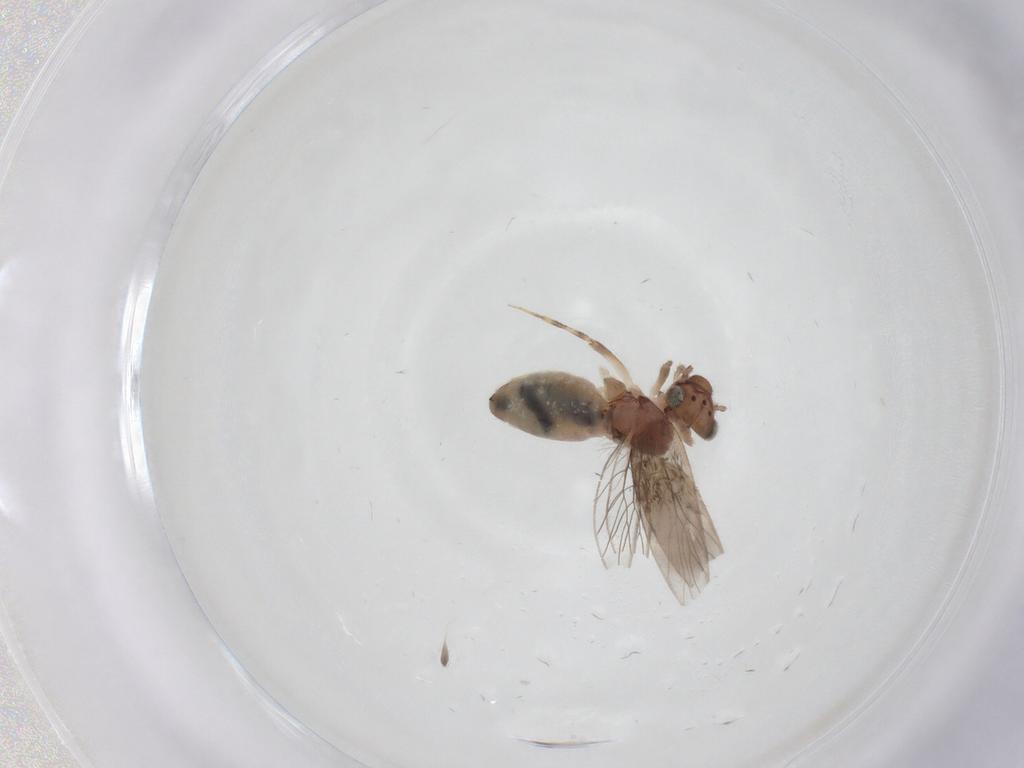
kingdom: Animalia
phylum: Arthropoda
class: Insecta
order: Psocodea
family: Lepidopsocidae
